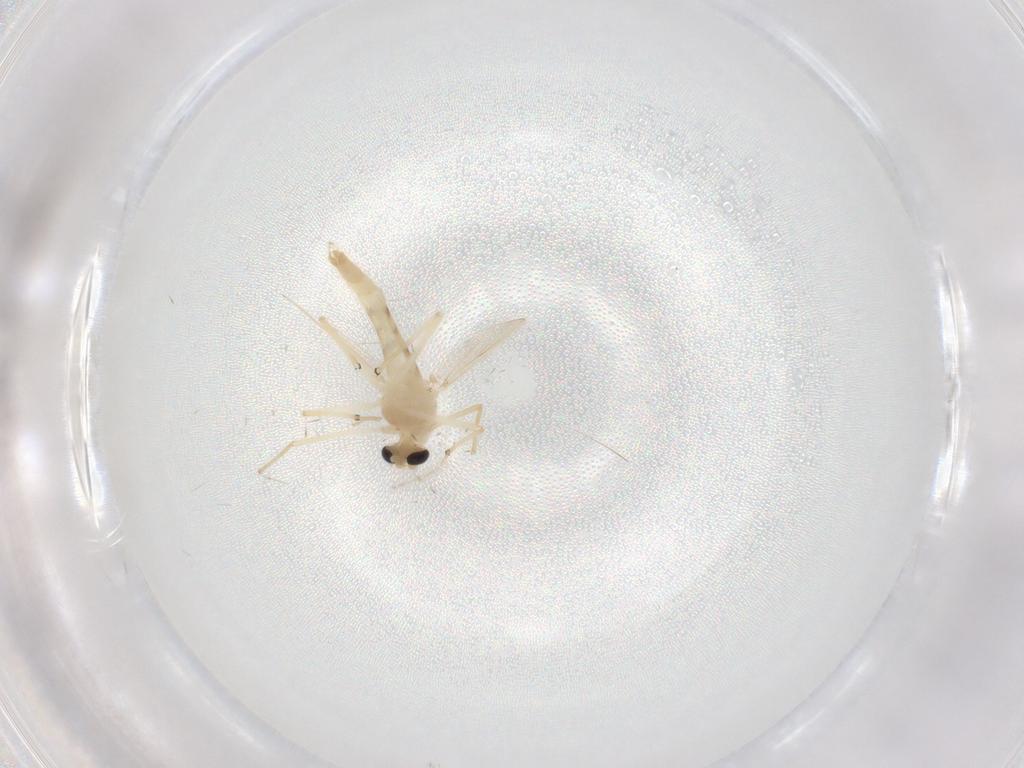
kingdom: Animalia
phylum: Arthropoda
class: Insecta
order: Diptera
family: Chironomidae
